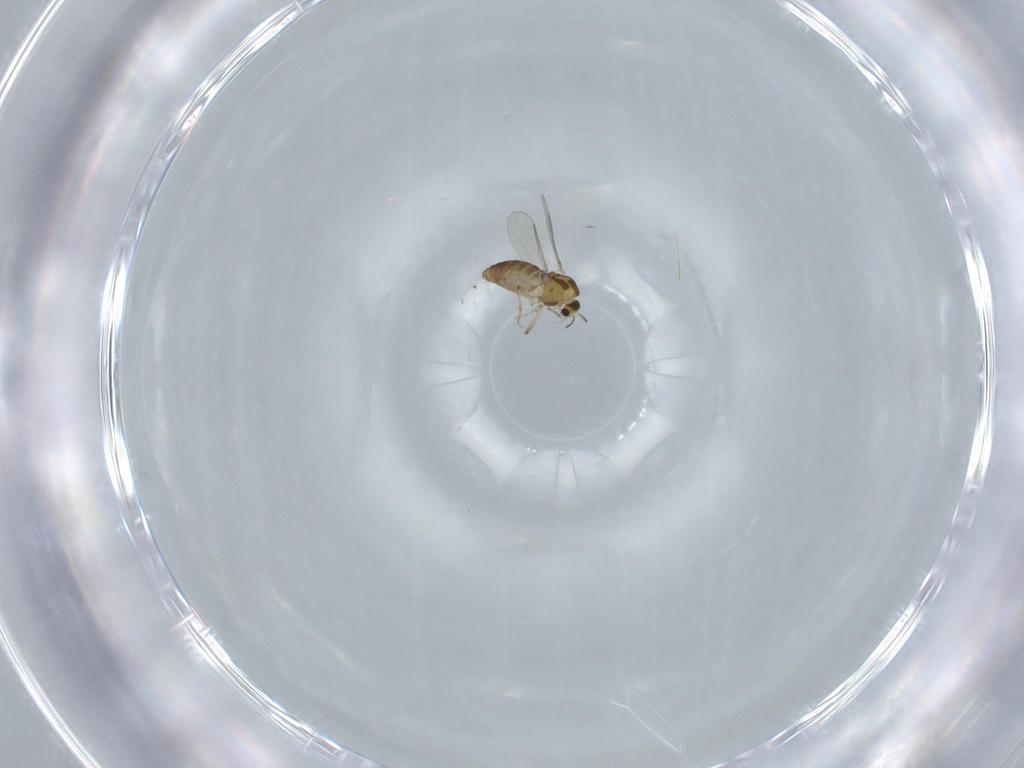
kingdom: Animalia
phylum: Arthropoda
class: Insecta
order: Diptera
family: Chironomidae
